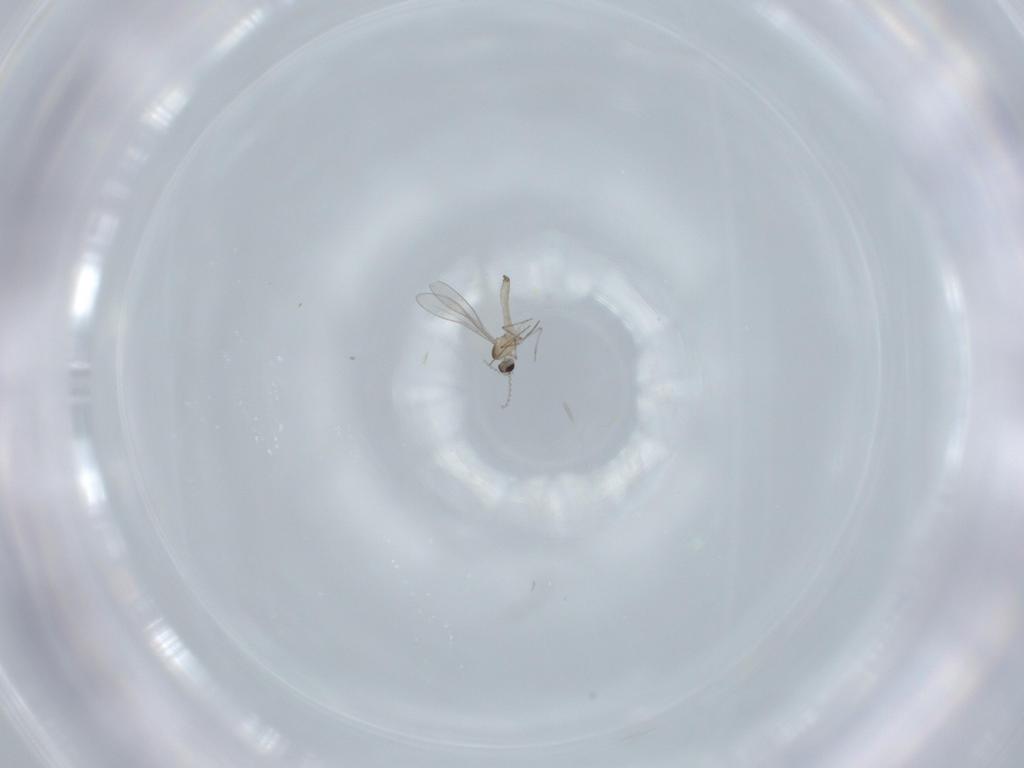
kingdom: Animalia
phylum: Arthropoda
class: Insecta
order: Diptera
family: Cecidomyiidae
